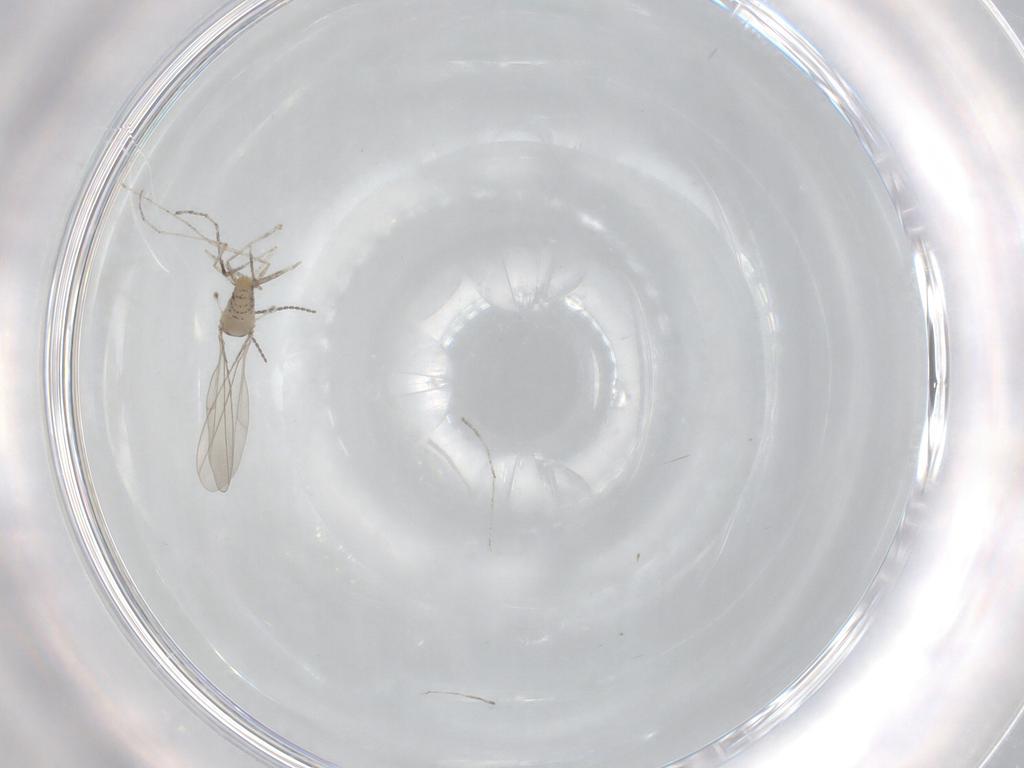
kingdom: Animalia
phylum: Arthropoda
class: Insecta
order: Diptera
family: Cecidomyiidae
